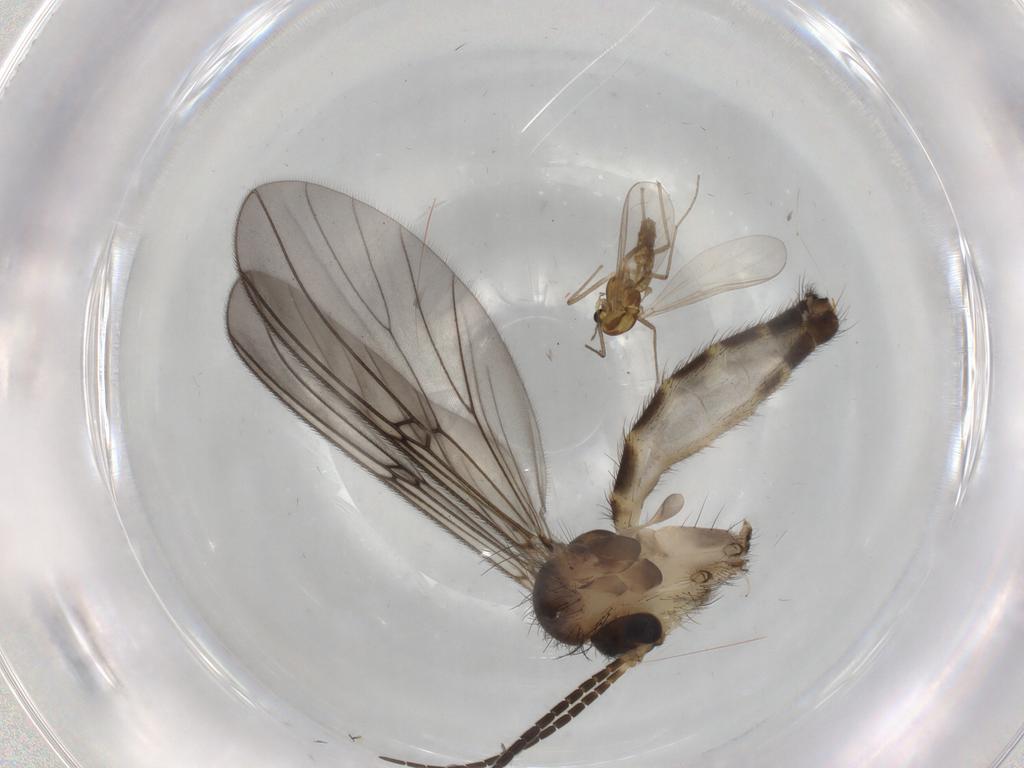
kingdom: Animalia
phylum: Arthropoda
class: Insecta
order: Diptera
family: Chironomidae
